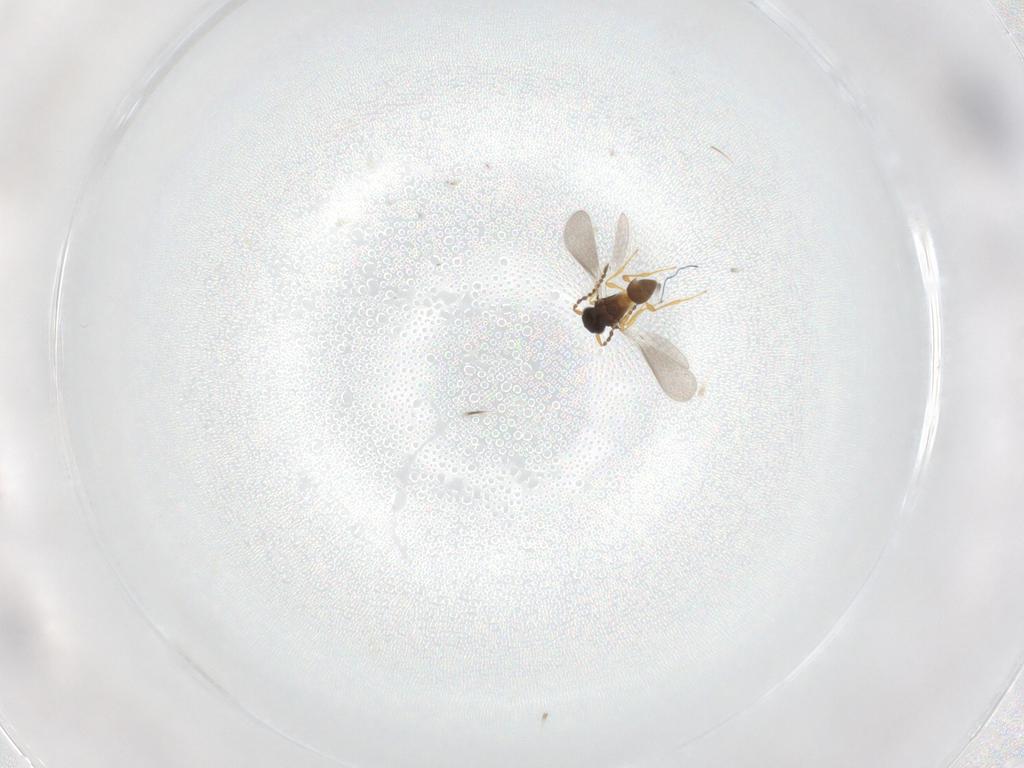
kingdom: Animalia
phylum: Arthropoda
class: Insecta
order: Hymenoptera
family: Platygastridae
